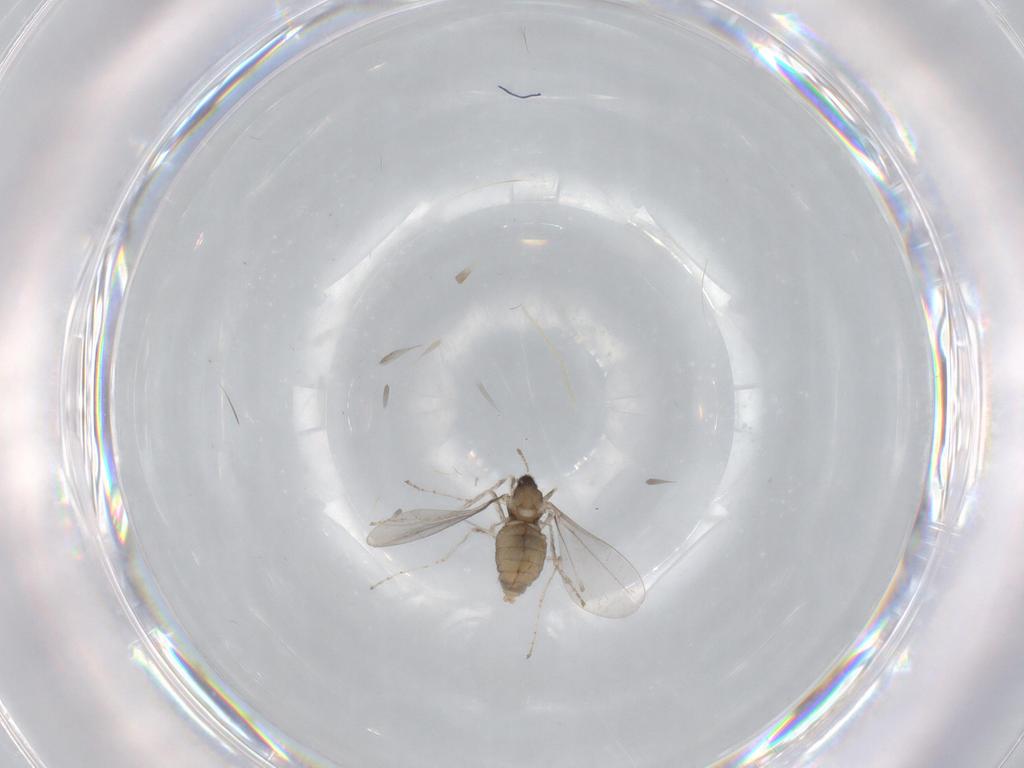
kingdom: Animalia
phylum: Arthropoda
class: Insecta
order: Diptera
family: Cecidomyiidae
